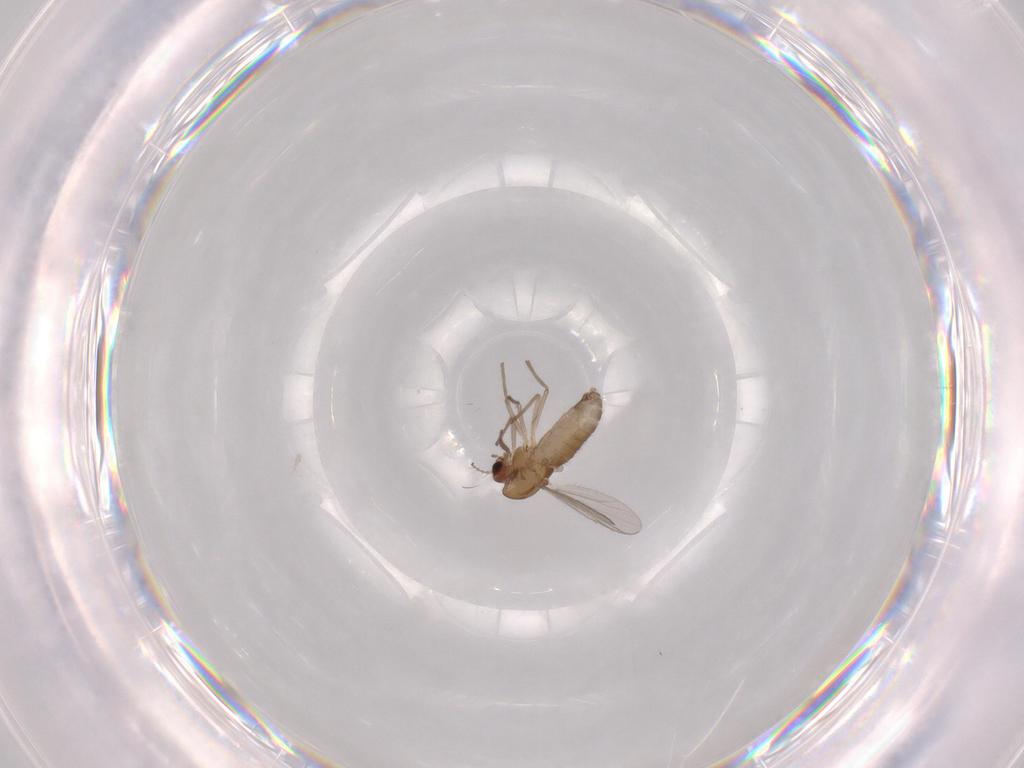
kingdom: Animalia
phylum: Arthropoda
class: Insecta
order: Diptera
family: Chironomidae
